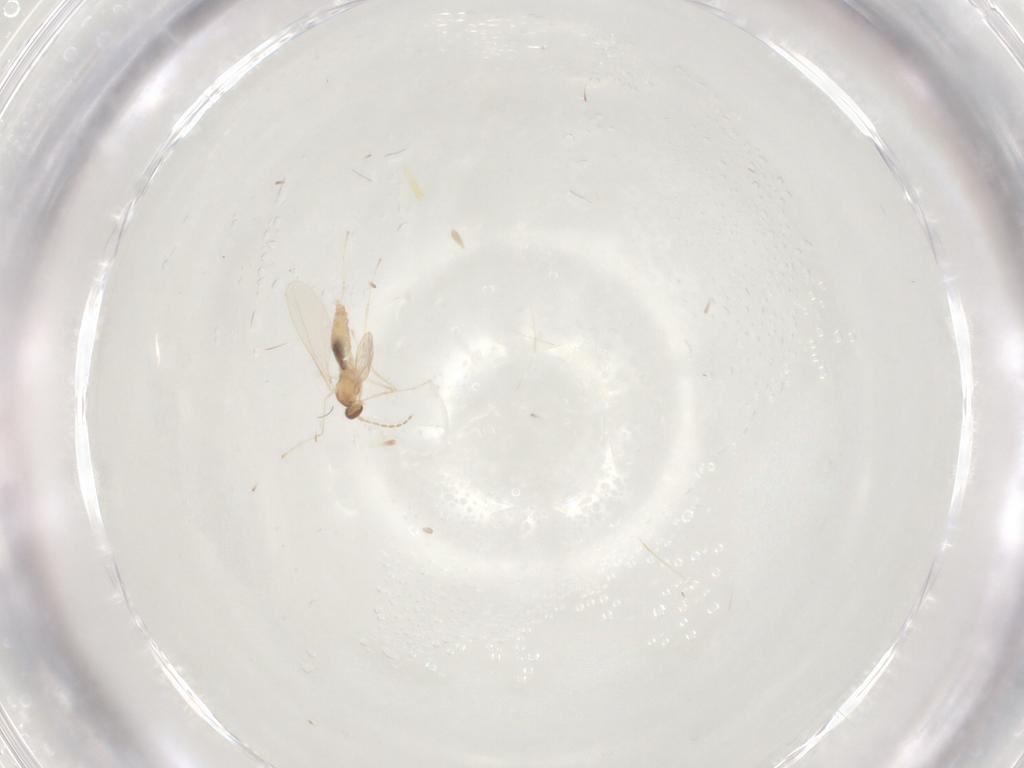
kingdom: Animalia
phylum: Arthropoda
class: Insecta
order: Diptera
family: Cecidomyiidae
